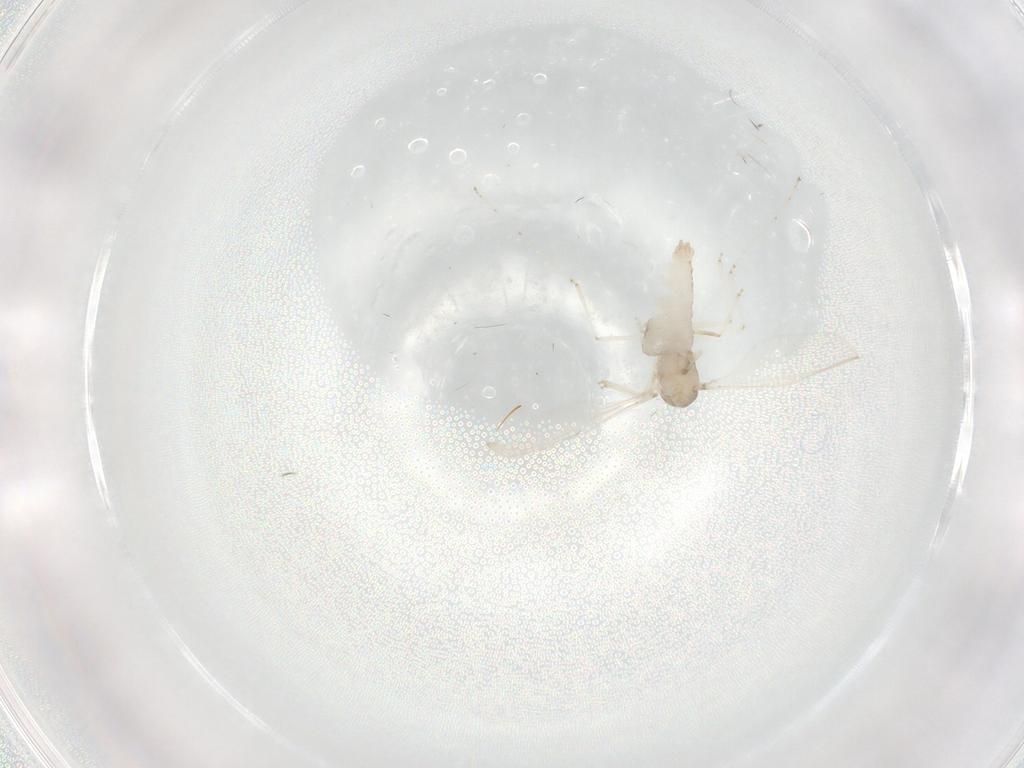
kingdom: Animalia
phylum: Arthropoda
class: Insecta
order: Diptera
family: Cecidomyiidae
